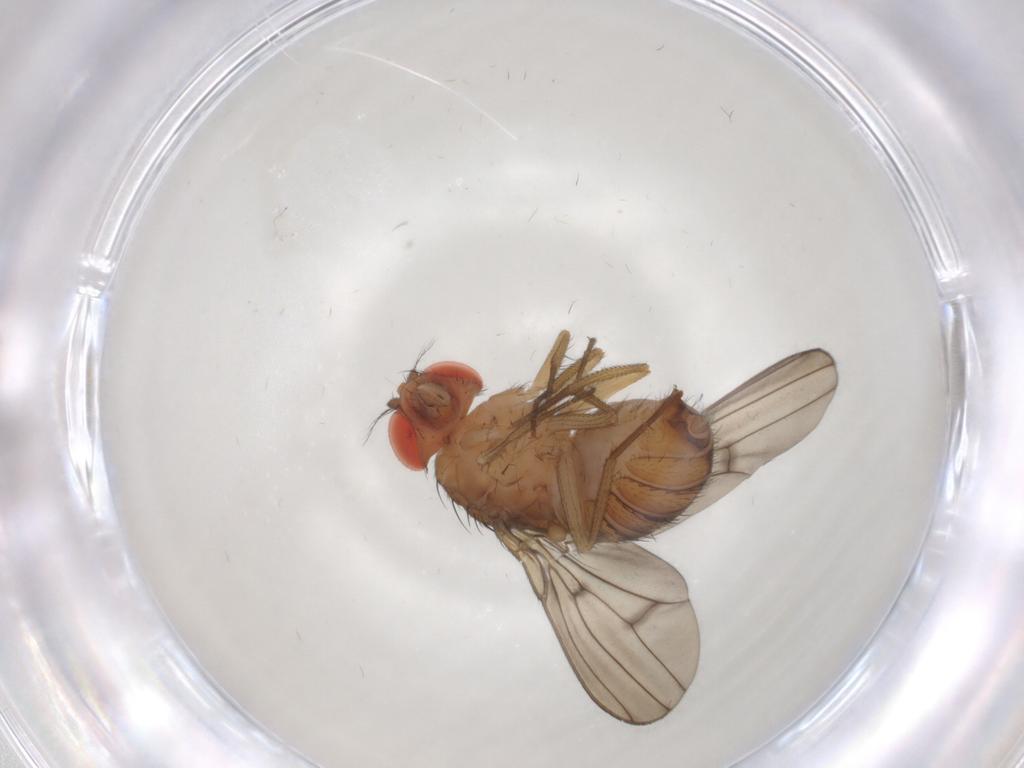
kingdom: Animalia
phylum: Arthropoda
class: Insecta
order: Diptera
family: Drosophilidae
